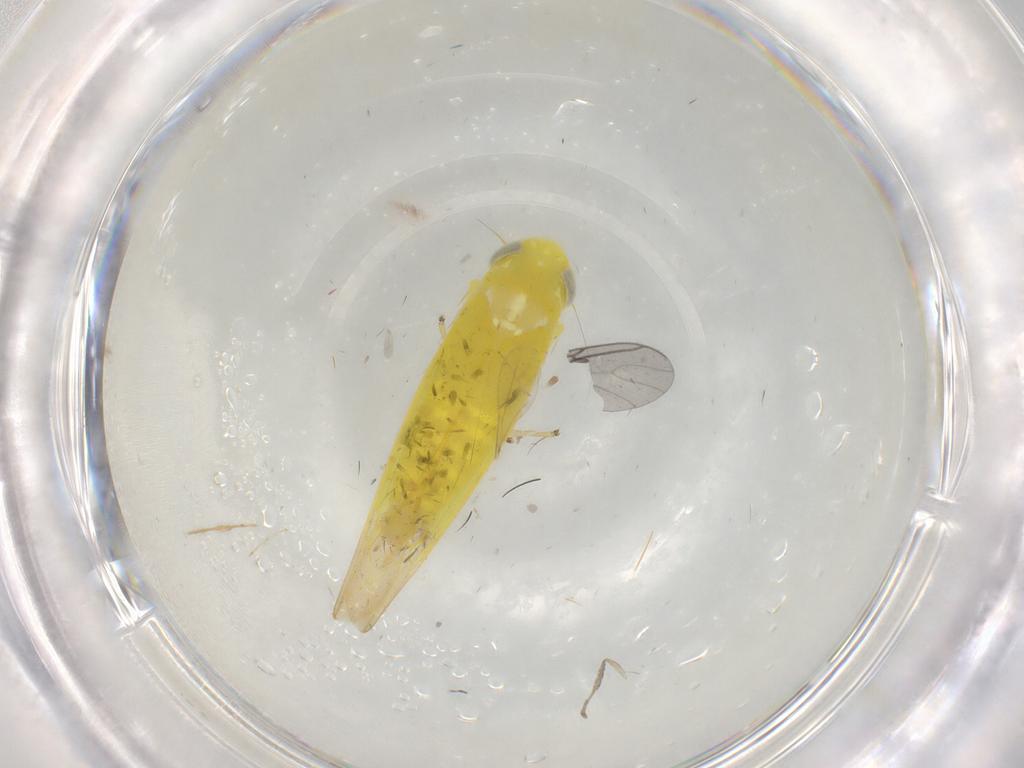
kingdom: Animalia
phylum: Arthropoda
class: Insecta
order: Hemiptera
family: Cicadellidae
